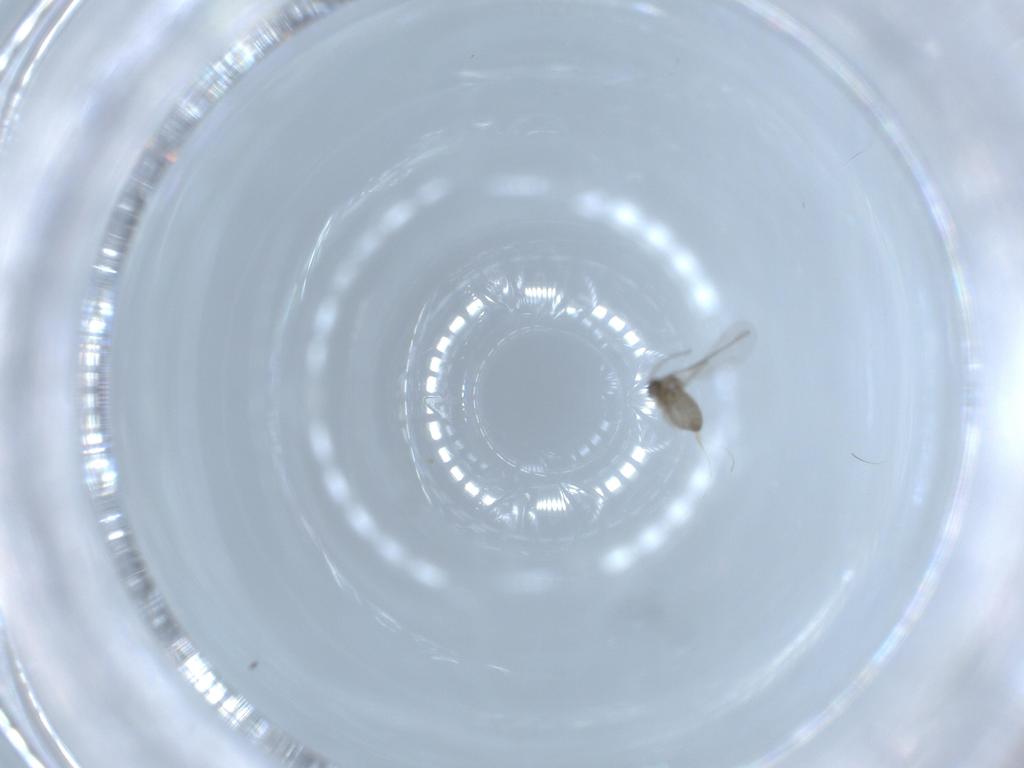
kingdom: Animalia
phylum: Arthropoda
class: Insecta
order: Diptera
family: Cecidomyiidae
